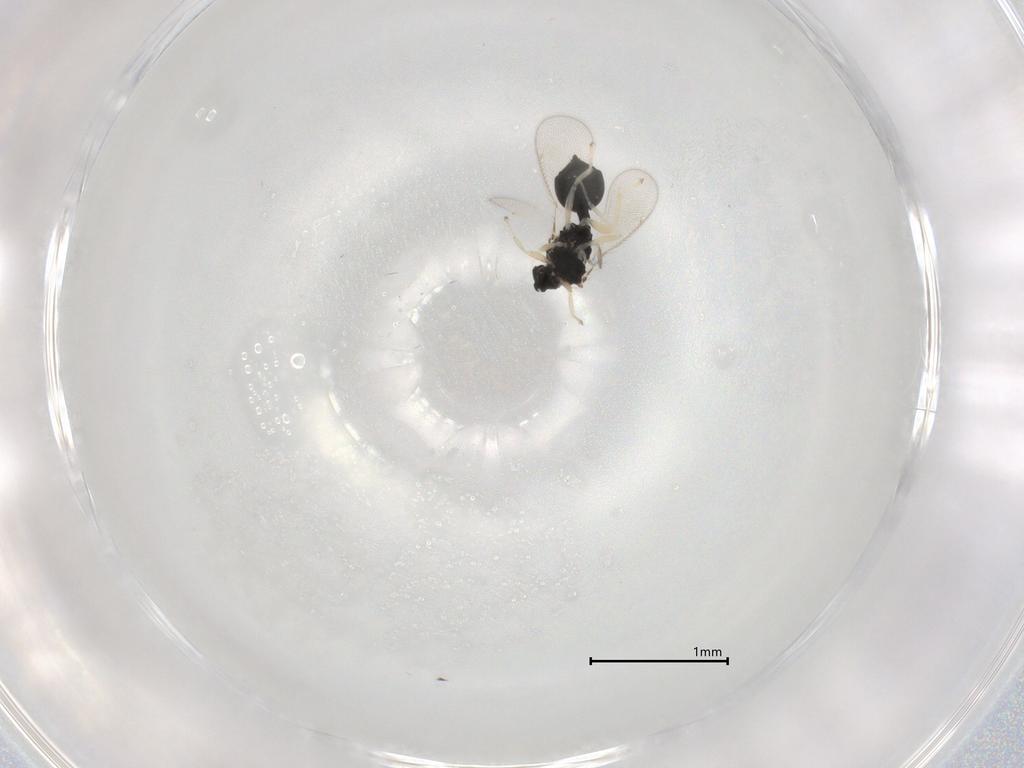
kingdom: Animalia
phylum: Arthropoda
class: Insecta
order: Hymenoptera
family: Eulophidae
